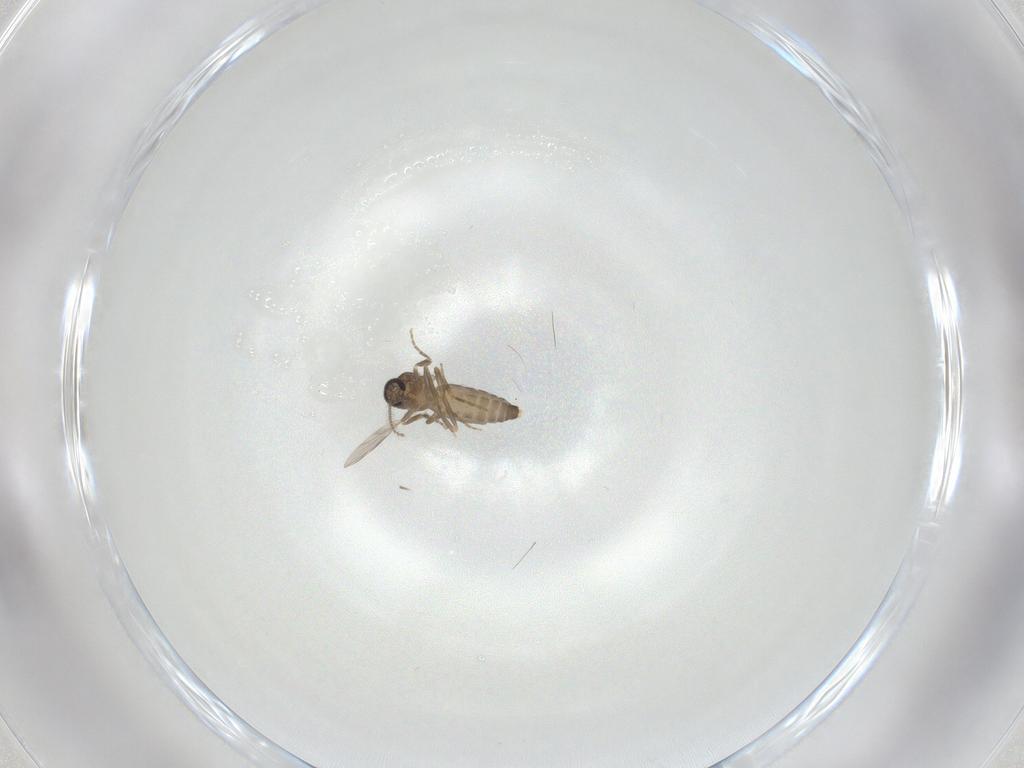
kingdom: Animalia
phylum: Arthropoda
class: Insecta
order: Diptera
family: Ceratopogonidae
